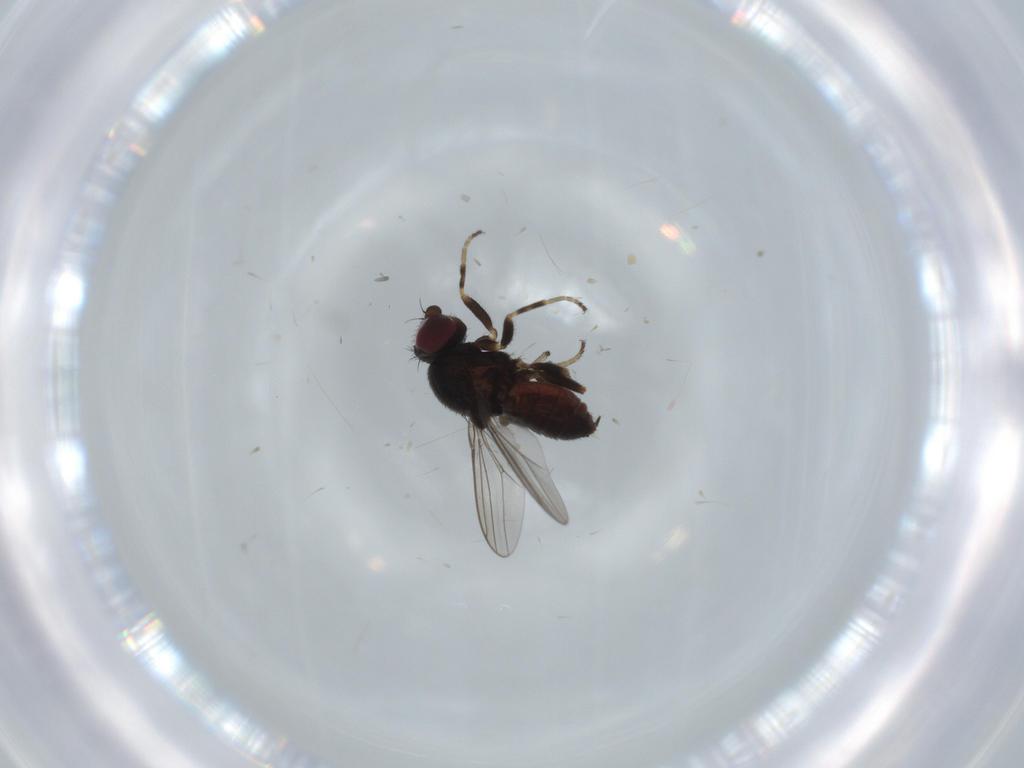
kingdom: Animalia
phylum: Arthropoda
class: Insecta
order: Diptera
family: Chloropidae
